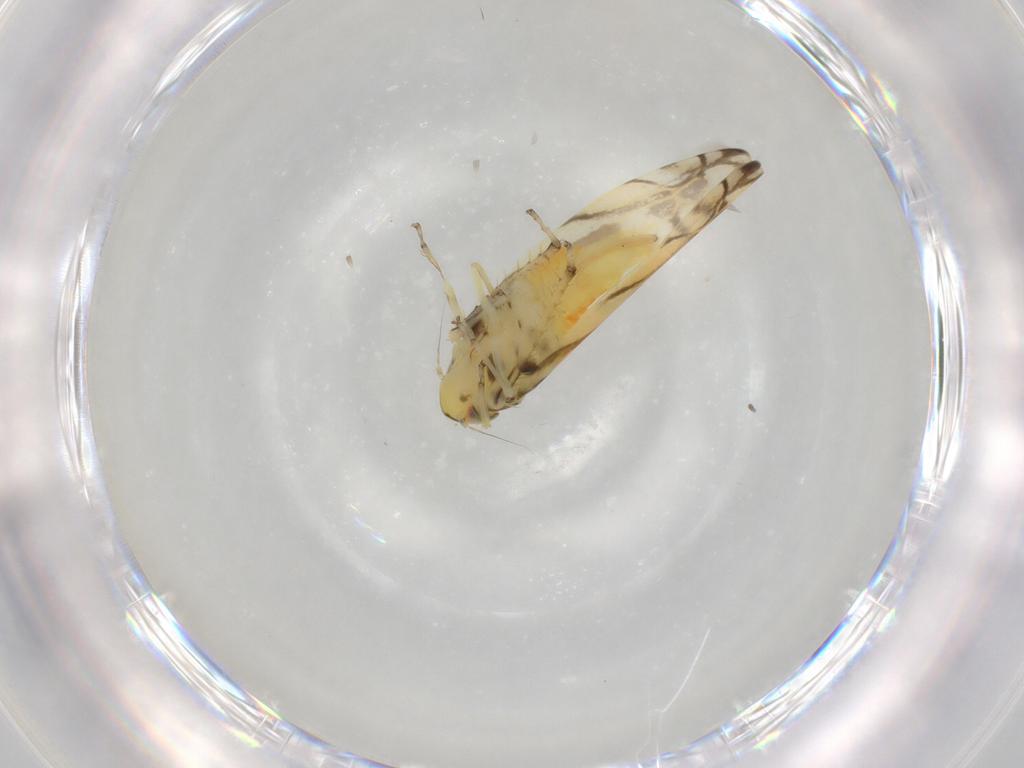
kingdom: Animalia
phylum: Arthropoda
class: Insecta
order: Hemiptera
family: Cicadellidae
